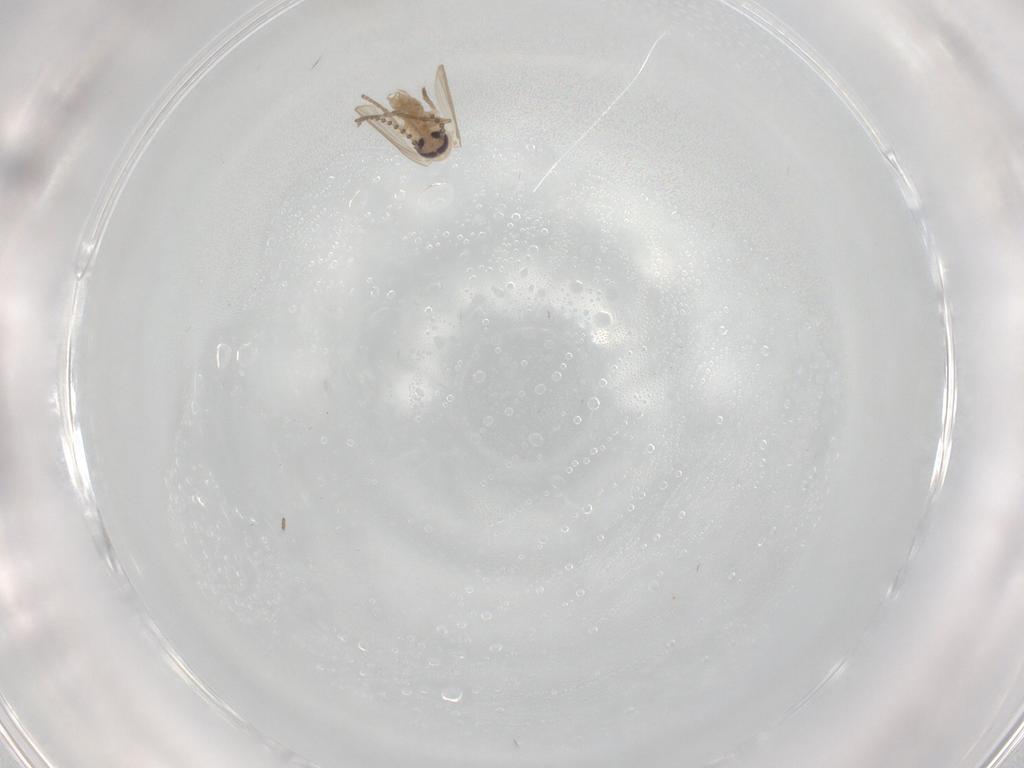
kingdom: Animalia
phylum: Arthropoda
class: Insecta
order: Diptera
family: Psychodidae
